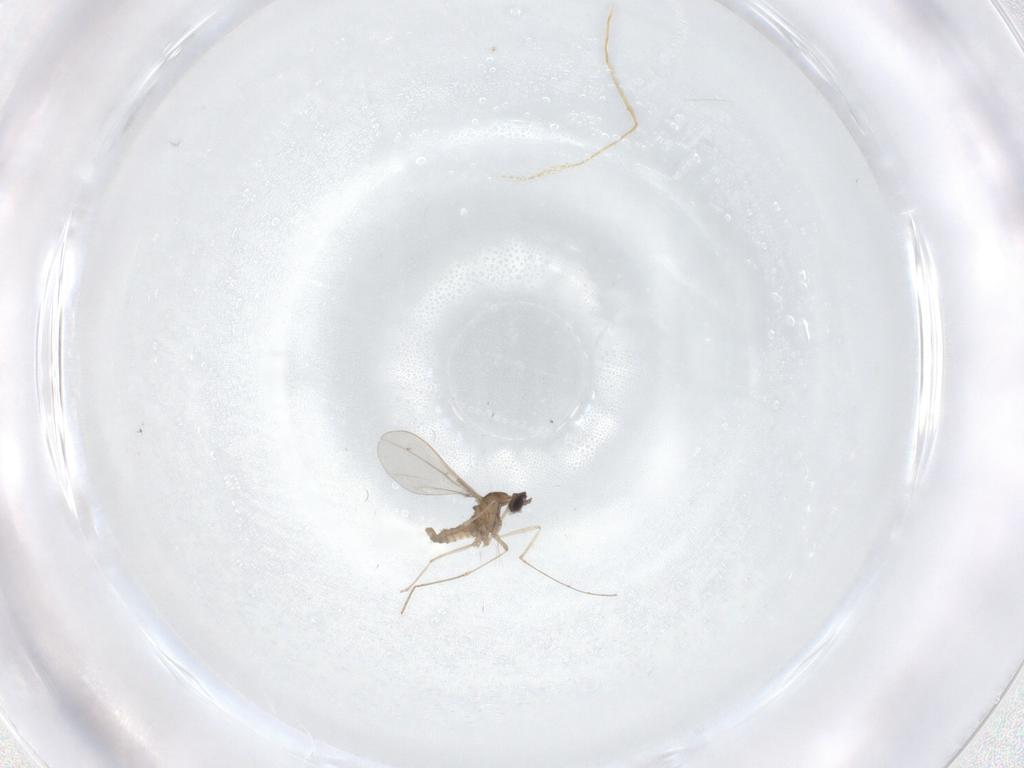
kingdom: Animalia
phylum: Arthropoda
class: Insecta
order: Diptera
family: Cecidomyiidae
